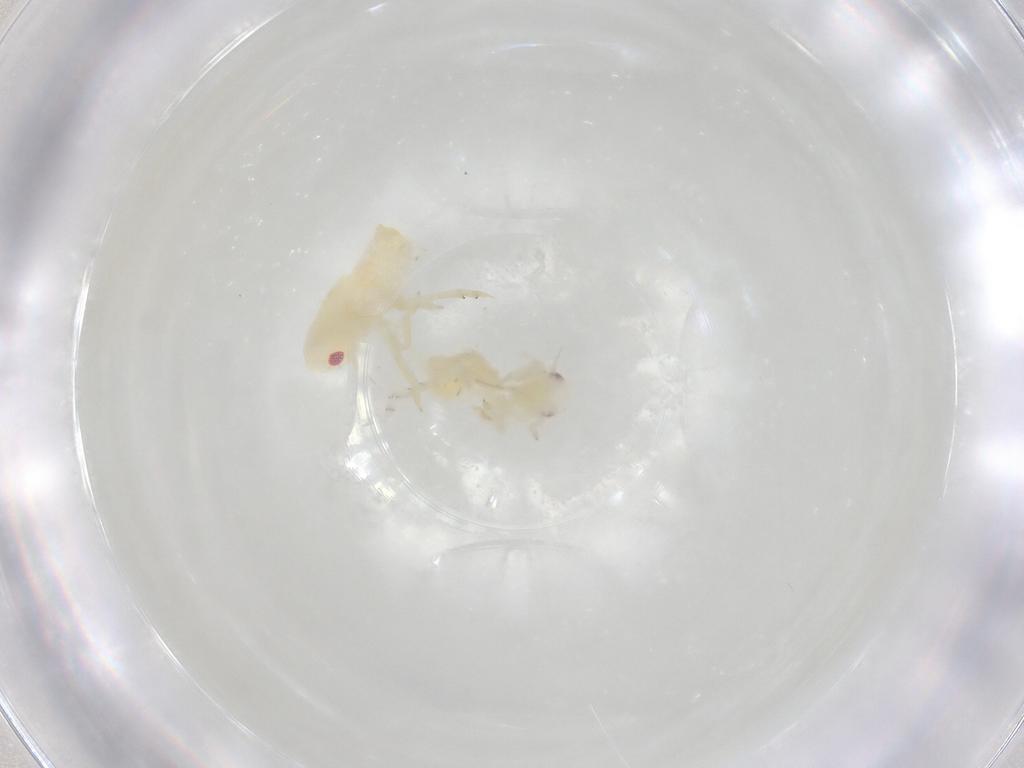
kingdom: Animalia
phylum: Arthropoda
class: Insecta
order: Hemiptera
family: Flatidae
